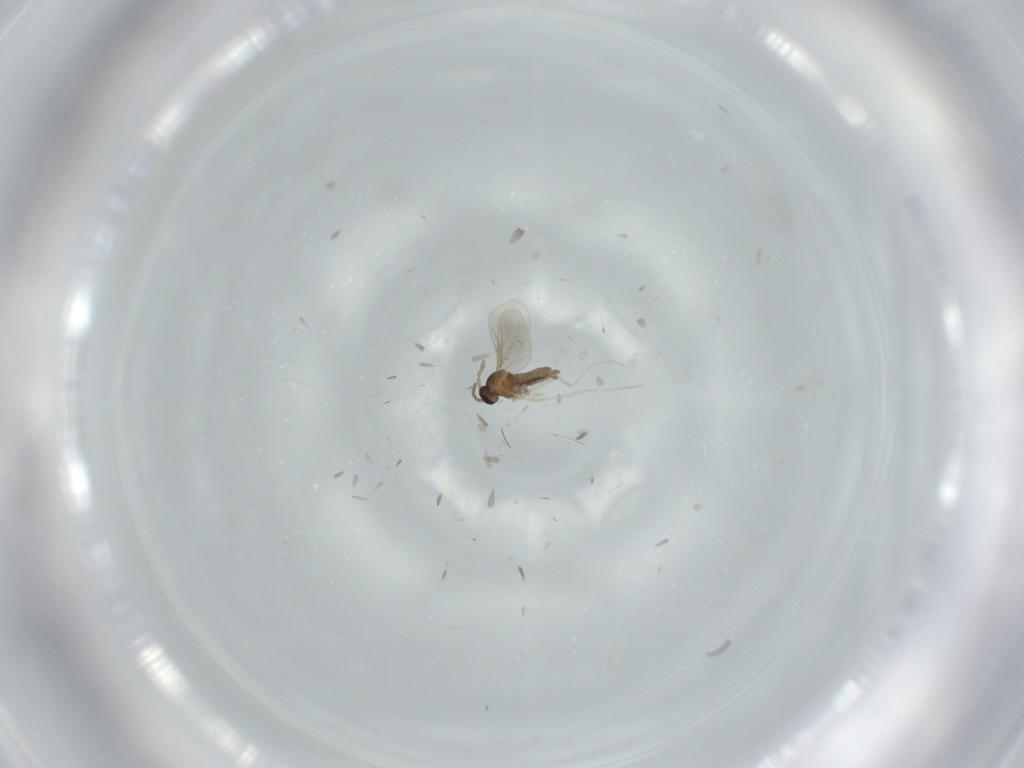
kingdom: Animalia
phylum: Arthropoda
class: Insecta
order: Diptera
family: Cecidomyiidae
